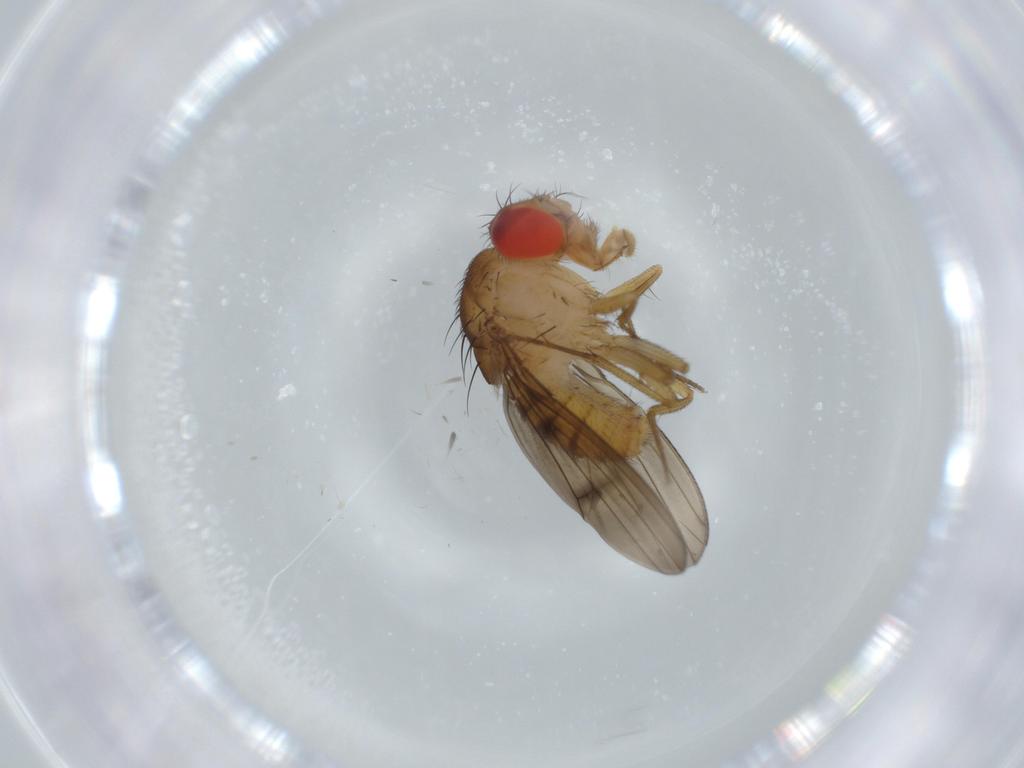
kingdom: Animalia
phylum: Arthropoda
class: Insecta
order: Diptera
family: Drosophilidae
